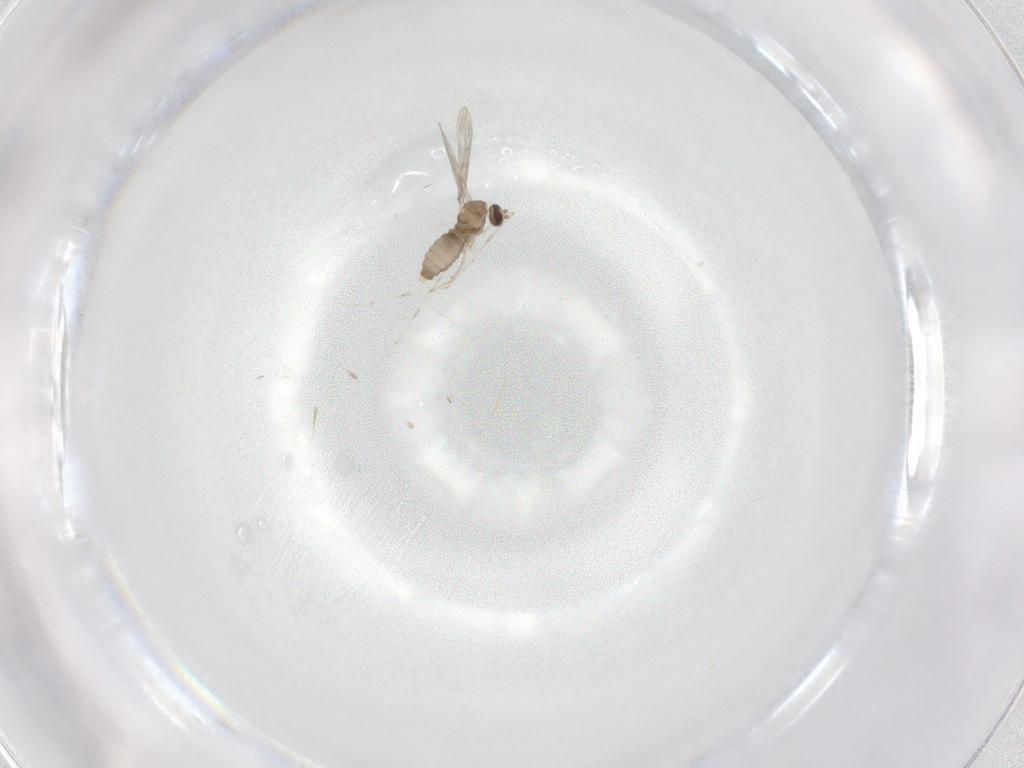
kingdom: Animalia
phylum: Arthropoda
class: Insecta
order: Diptera
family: Cecidomyiidae
